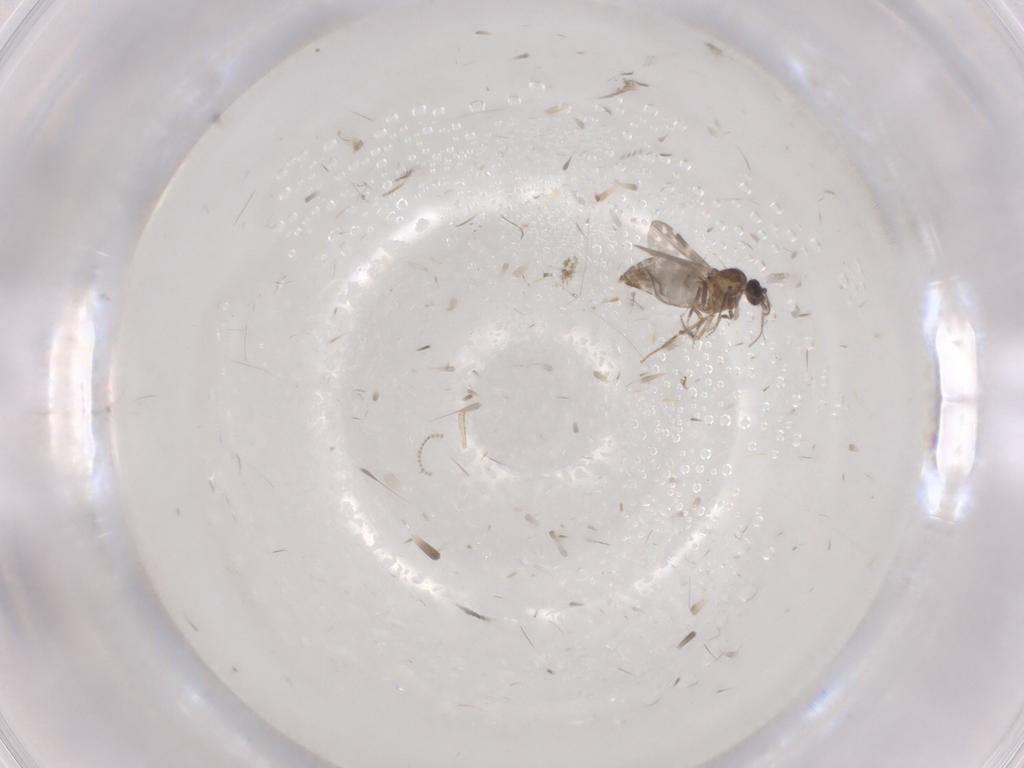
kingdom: Animalia
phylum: Arthropoda
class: Insecta
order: Diptera
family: Cecidomyiidae
